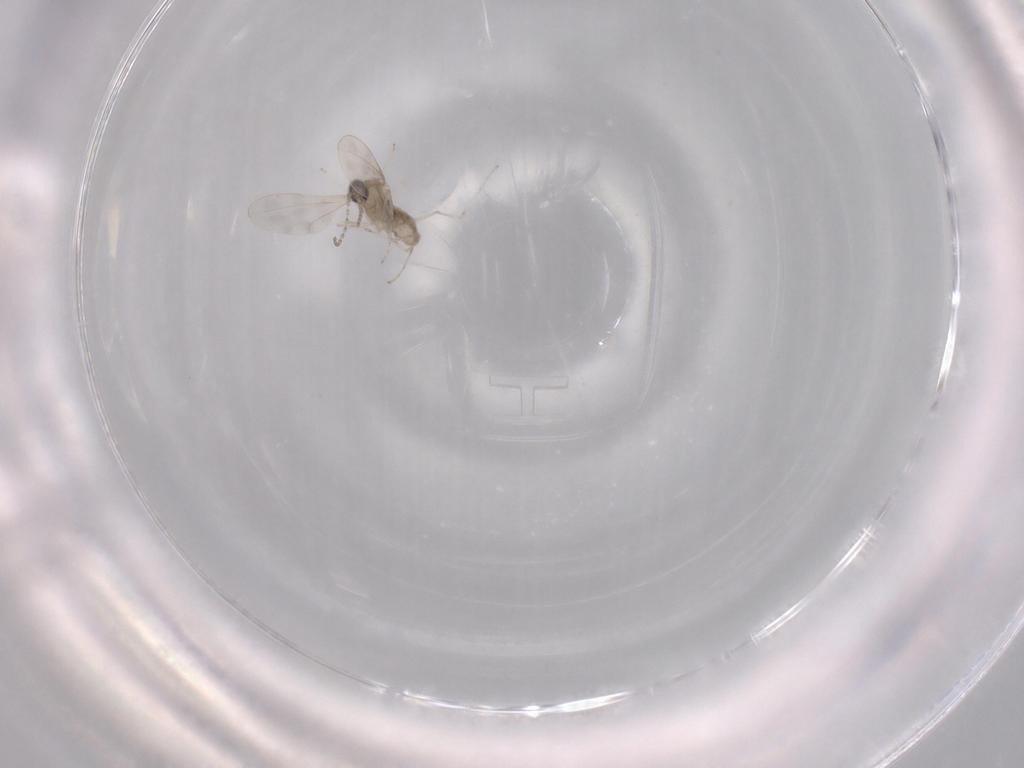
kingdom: Animalia
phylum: Arthropoda
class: Insecta
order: Diptera
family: Cecidomyiidae
